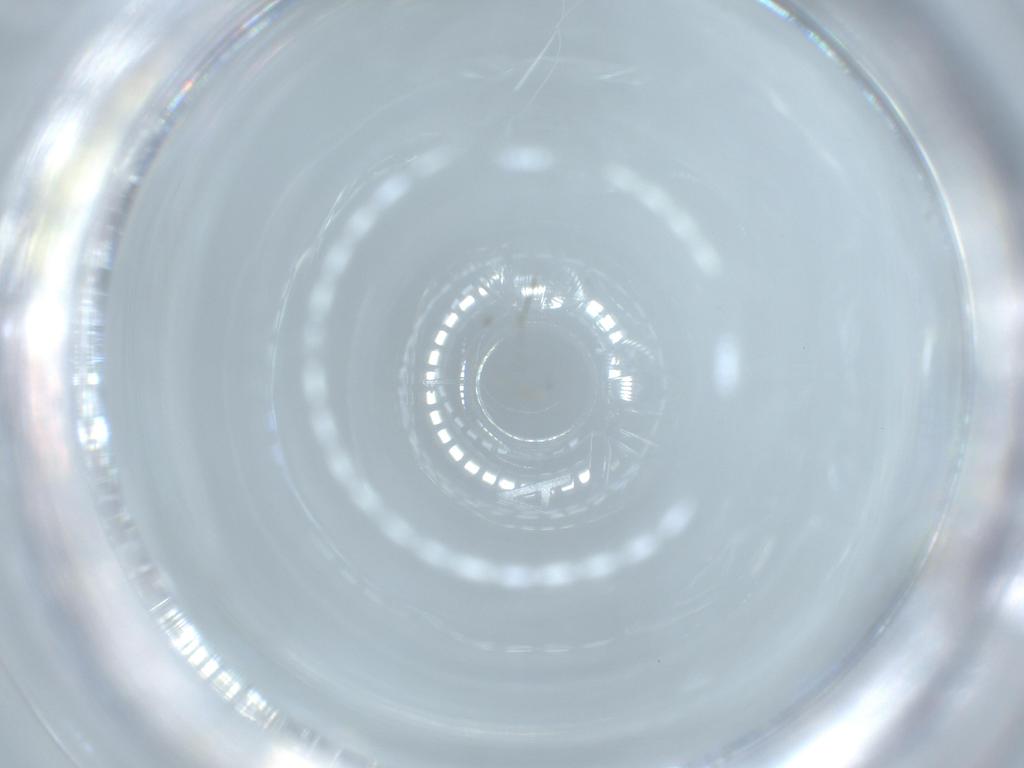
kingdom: Animalia
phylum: Arthropoda
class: Insecta
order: Diptera
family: Cecidomyiidae
